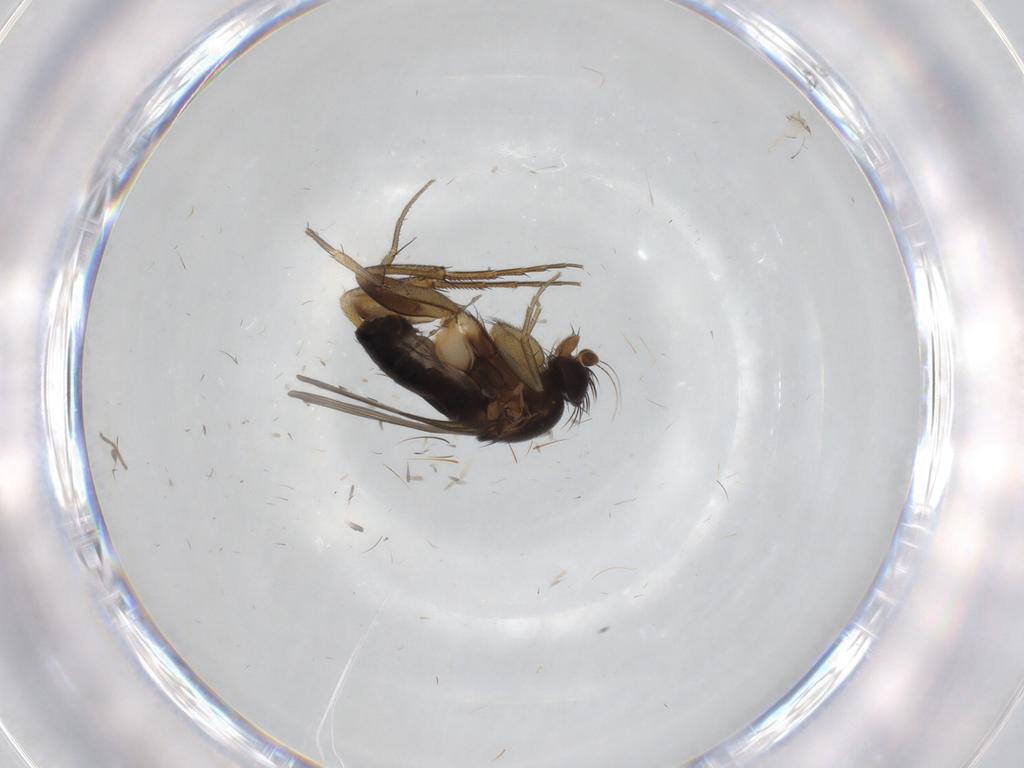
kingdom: Animalia
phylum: Arthropoda
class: Insecta
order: Diptera
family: Phoridae
